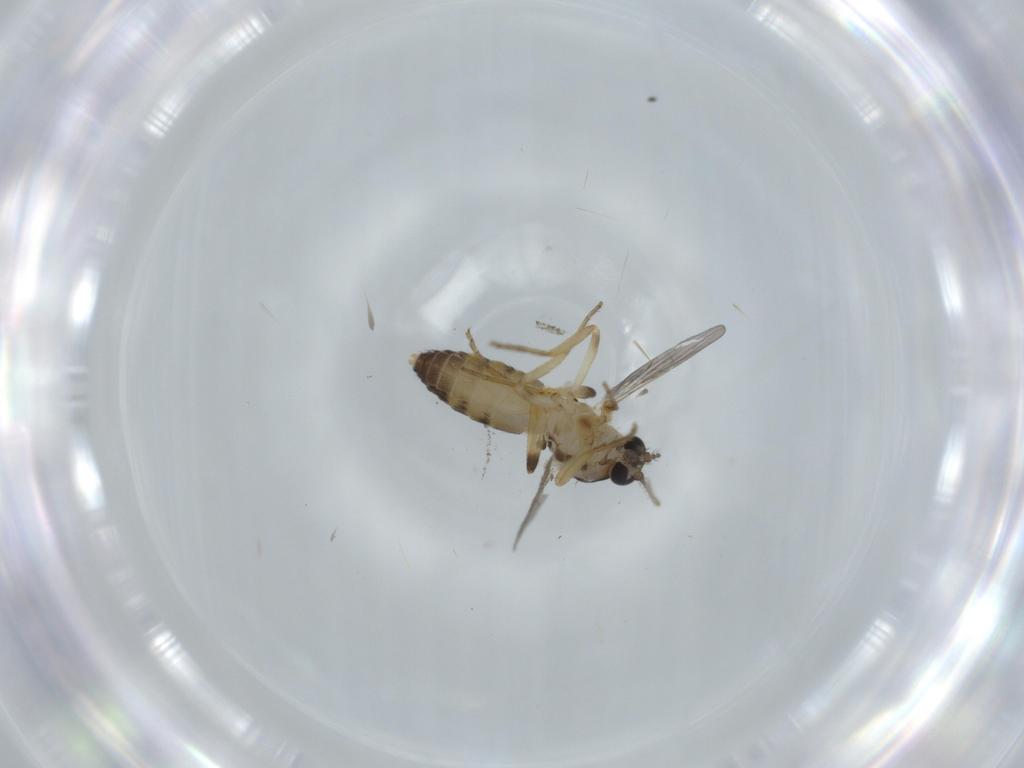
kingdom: Animalia
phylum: Arthropoda
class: Insecta
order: Diptera
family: Ceratopogonidae
